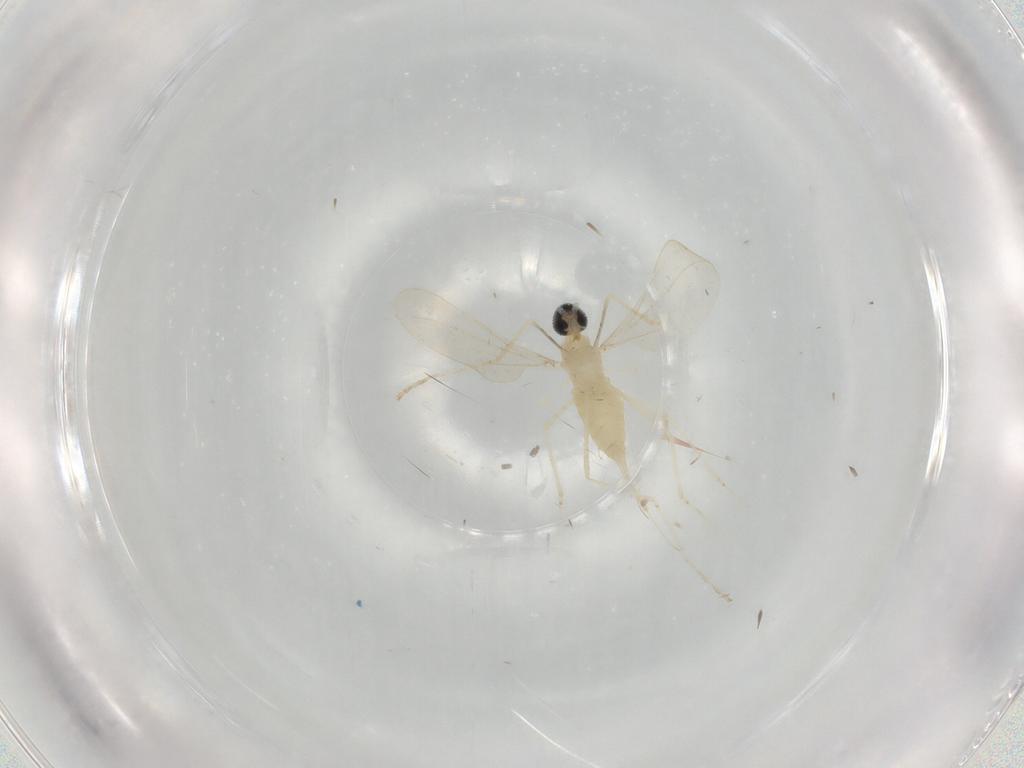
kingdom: Animalia
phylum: Arthropoda
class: Insecta
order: Diptera
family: Cecidomyiidae
